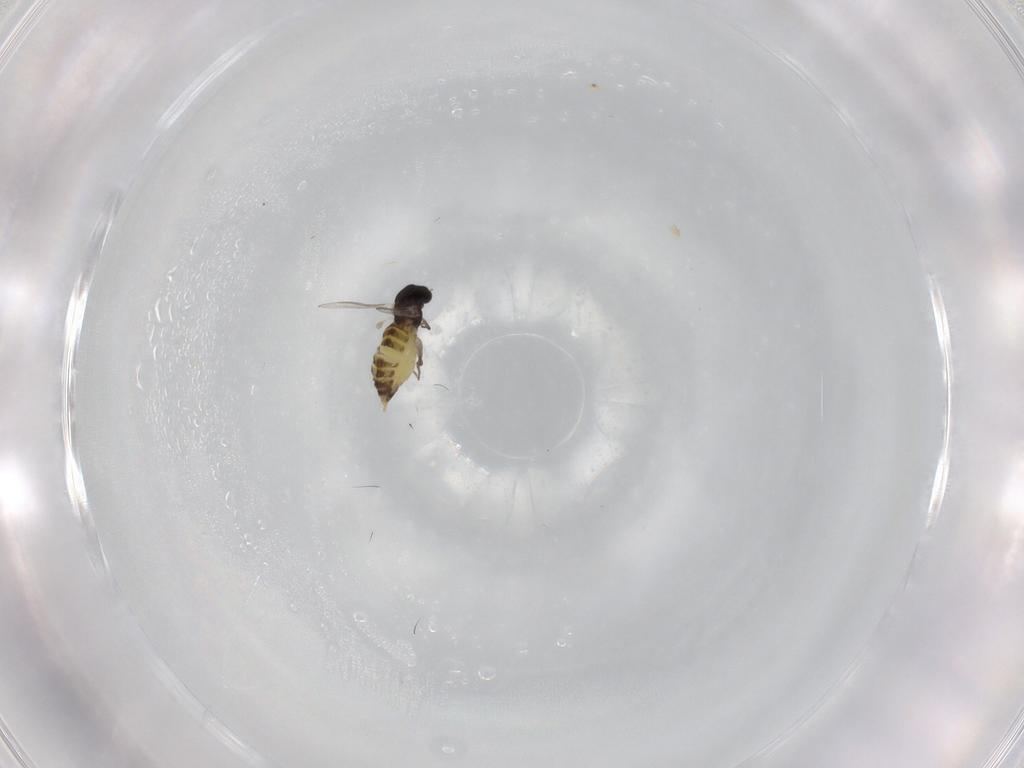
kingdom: Animalia
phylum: Arthropoda
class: Insecta
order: Diptera
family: Chironomidae
